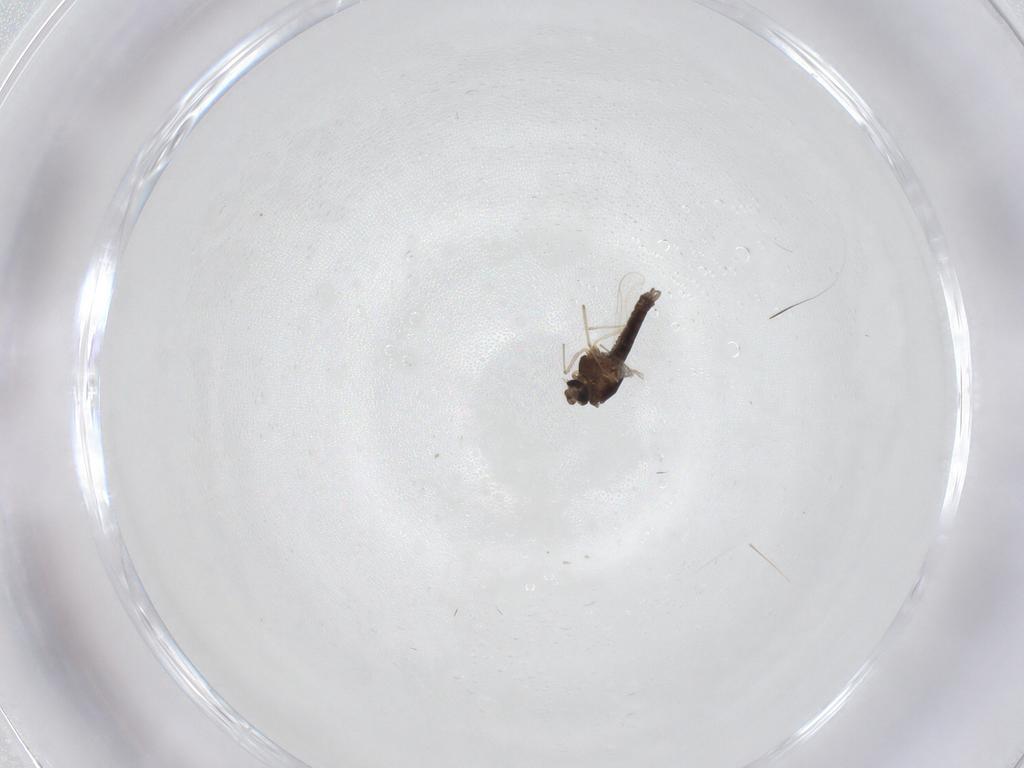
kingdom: Animalia
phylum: Arthropoda
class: Insecta
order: Diptera
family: Chironomidae
